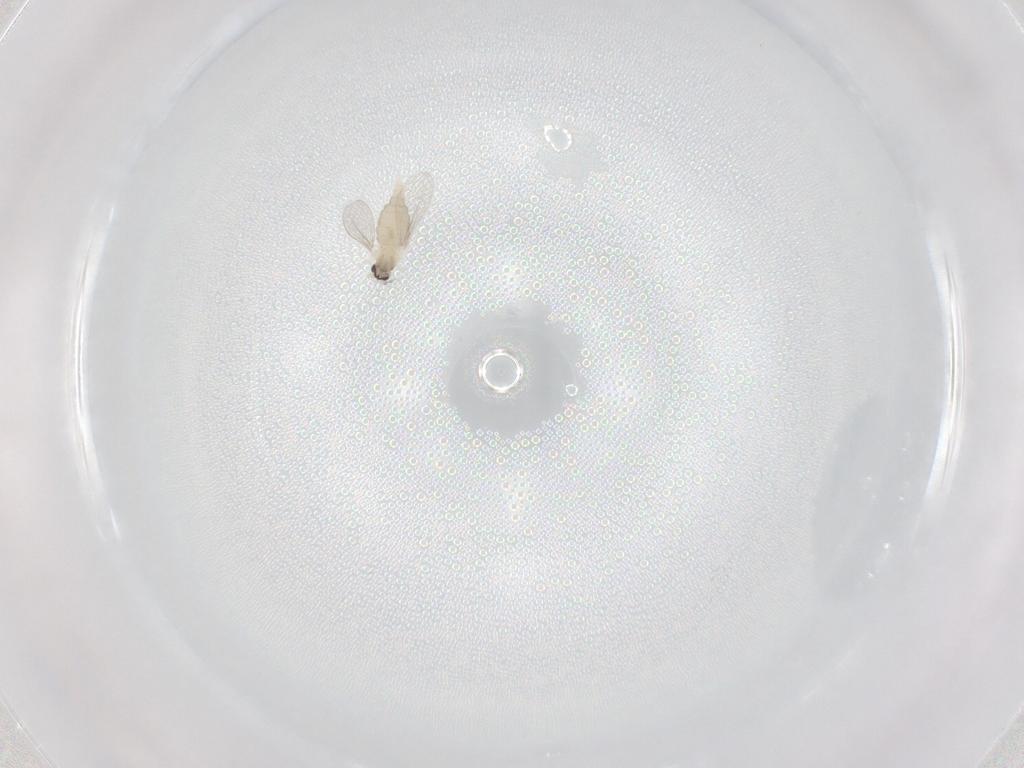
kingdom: Animalia
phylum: Arthropoda
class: Insecta
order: Diptera
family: Cecidomyiidae
